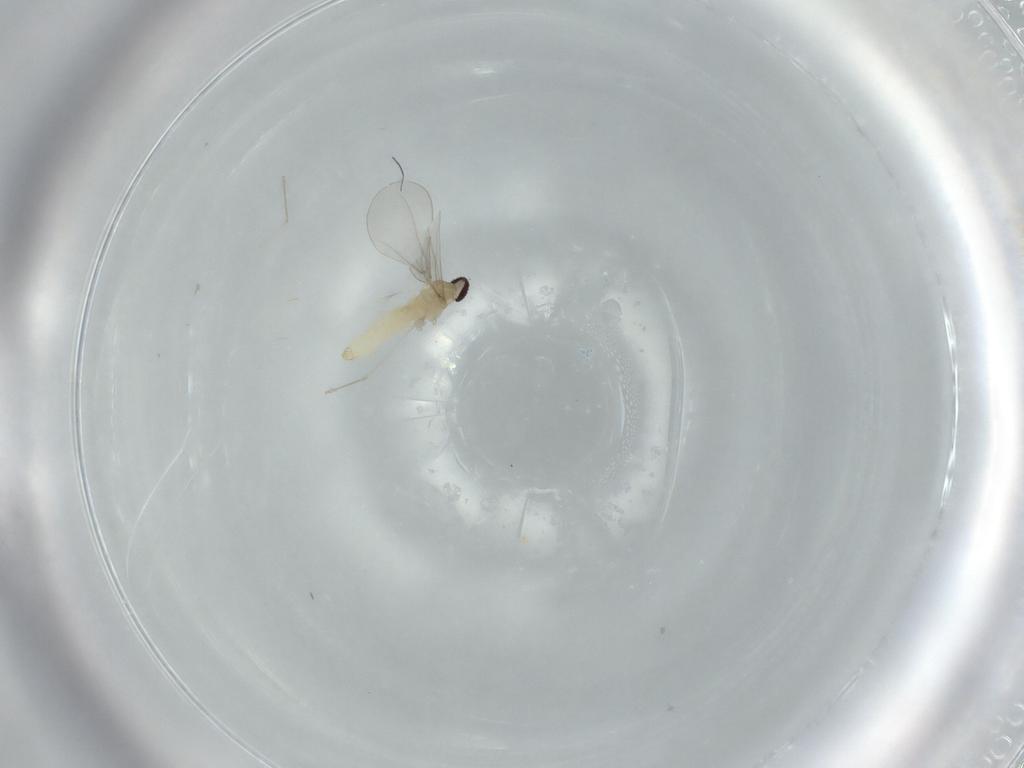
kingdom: Animalia
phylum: Arthropoda
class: Insecta
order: Diptera
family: Cecidomyiidae
